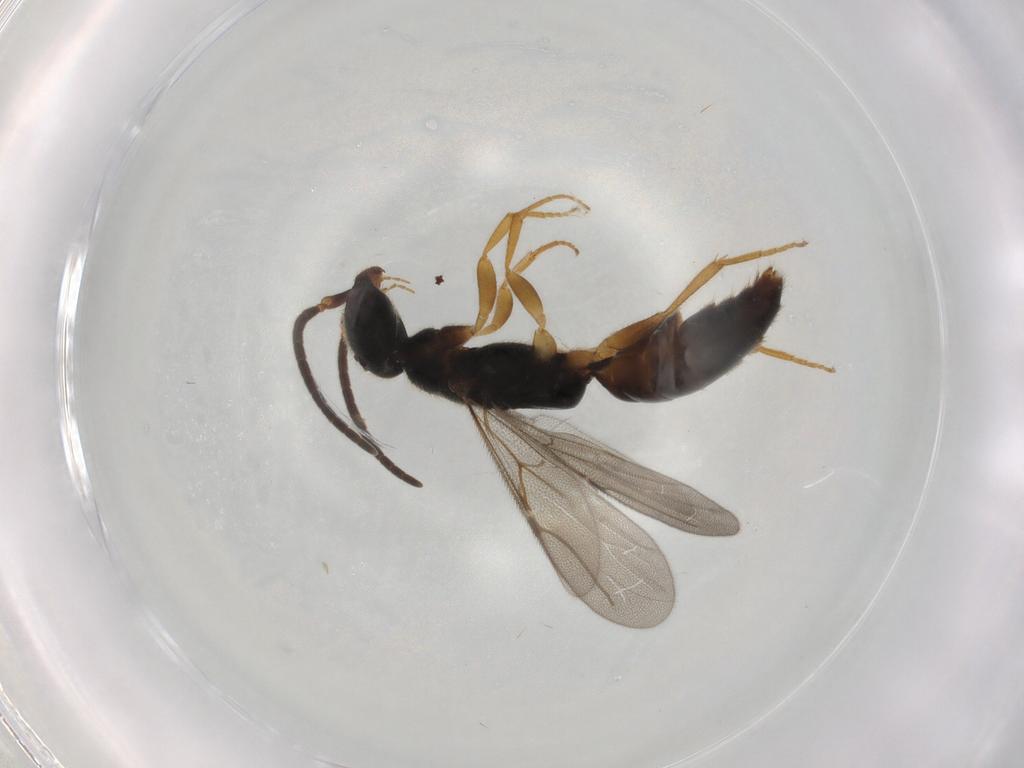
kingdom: Animalia
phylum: Arthropoda
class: Insecta
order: Hymenoptera
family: Bethylidae
